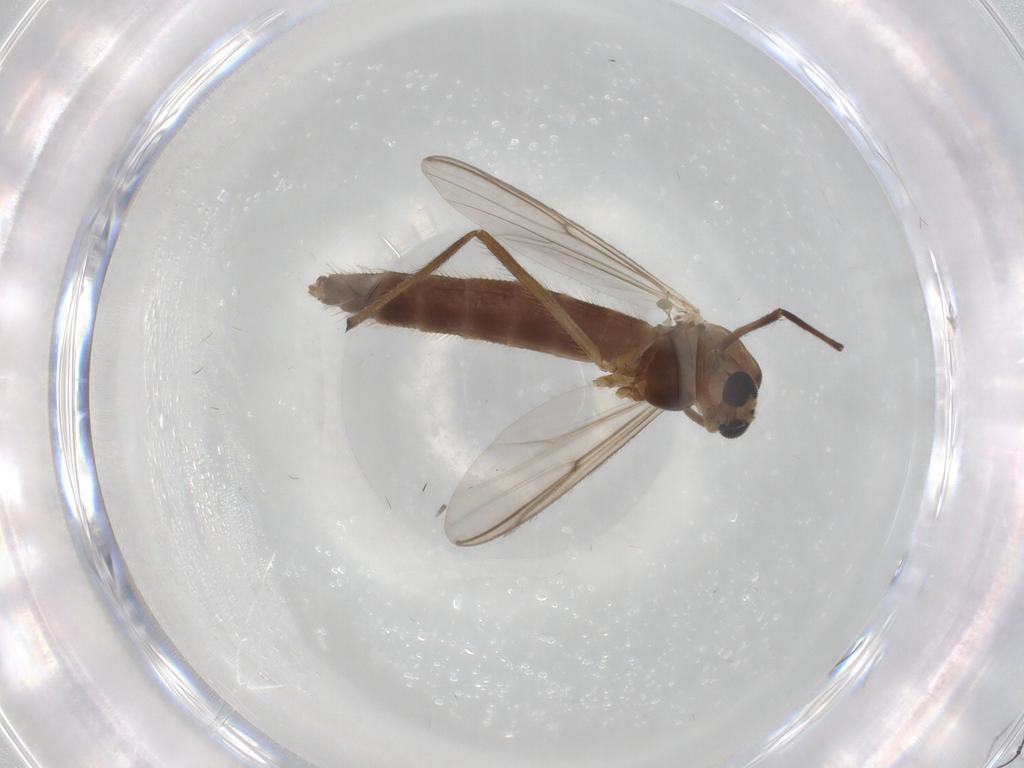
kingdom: Animalia
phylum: Arthropoda
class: Insecta
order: Diptera
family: Chironomidae
